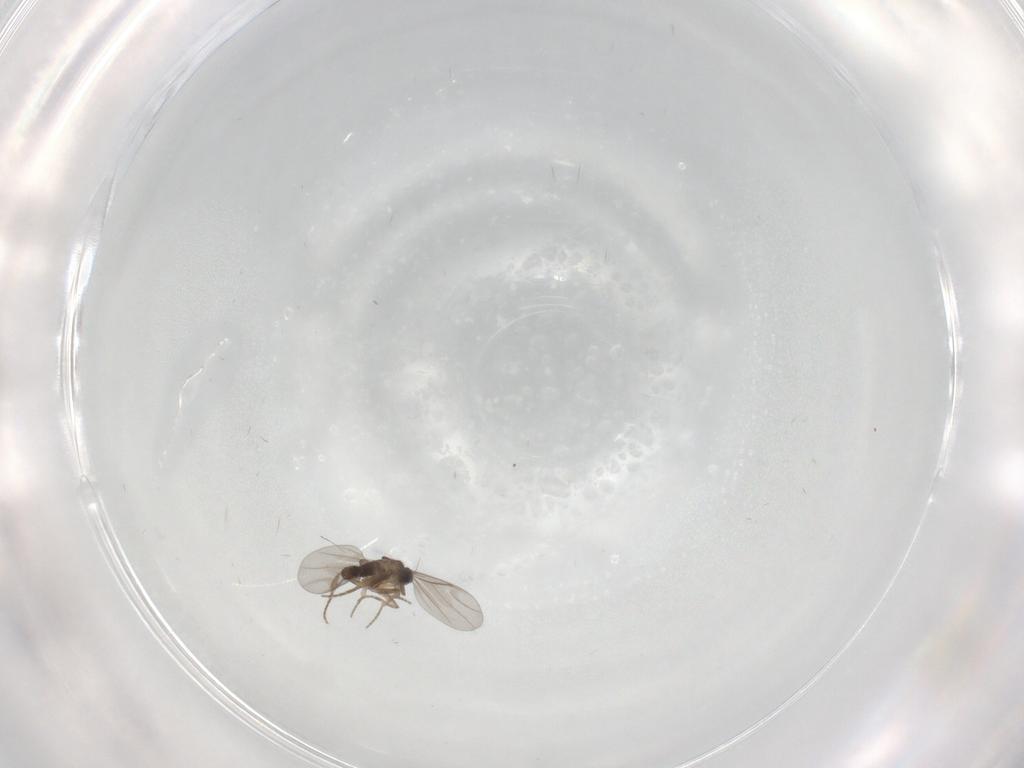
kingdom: Animalia
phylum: Arthropoda
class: Insecta
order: Diptera
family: Phoridae
